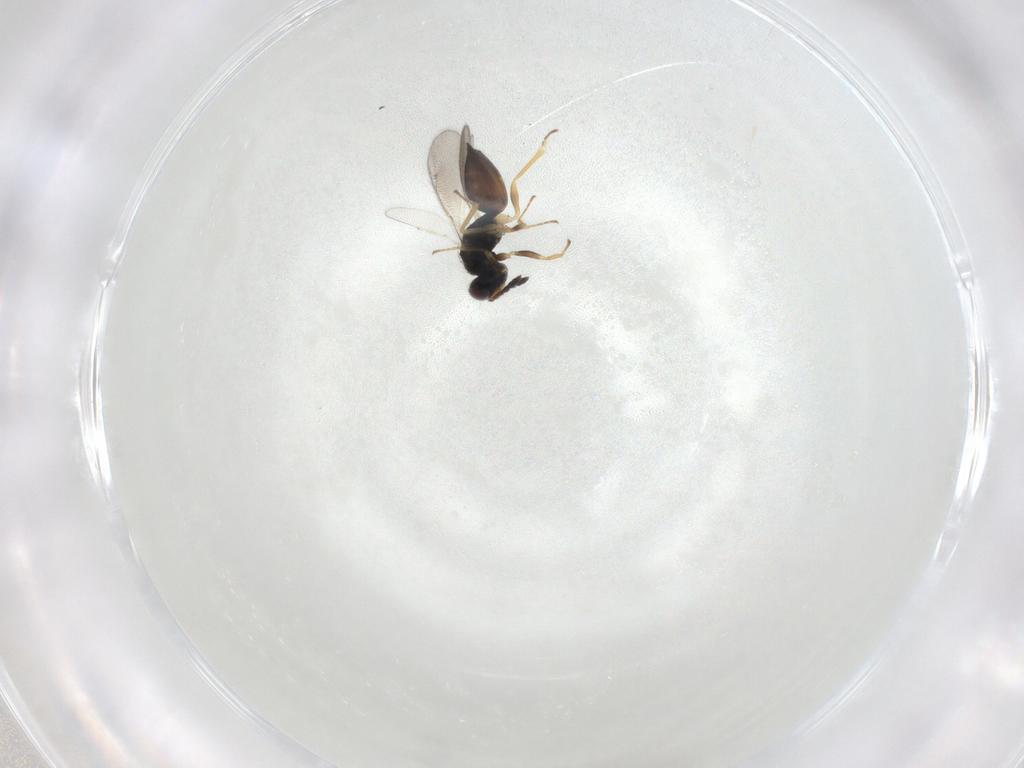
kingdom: Animalia
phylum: Arthropoda
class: Insecta
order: Hymenoptera
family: Eulophidae
